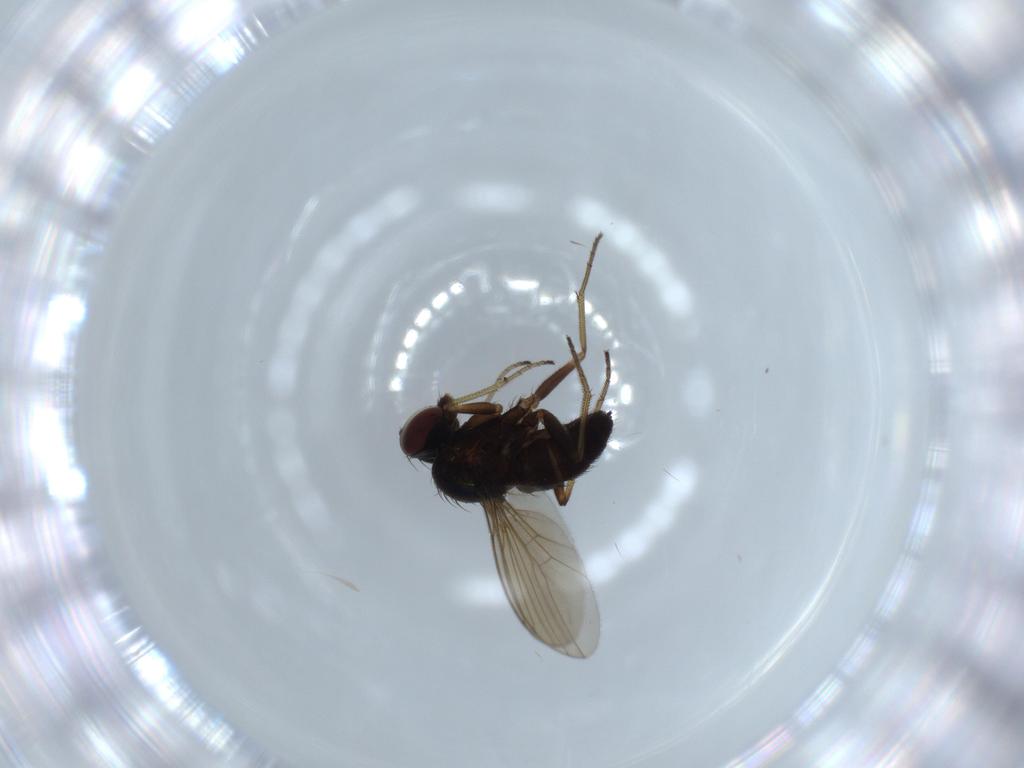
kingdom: Animalia
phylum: Arthropoda
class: Insecta
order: Diptera
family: Dolichopodidae
